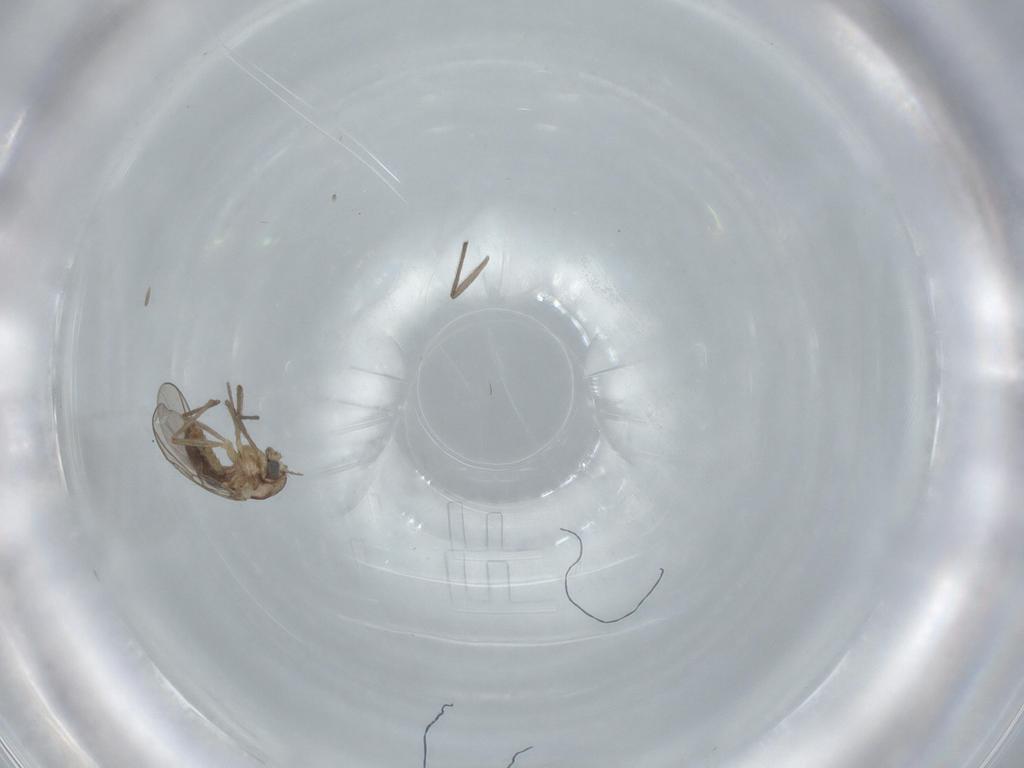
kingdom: Animalia
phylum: Arthropoda
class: Insecta
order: Diptera
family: Chironomidae
